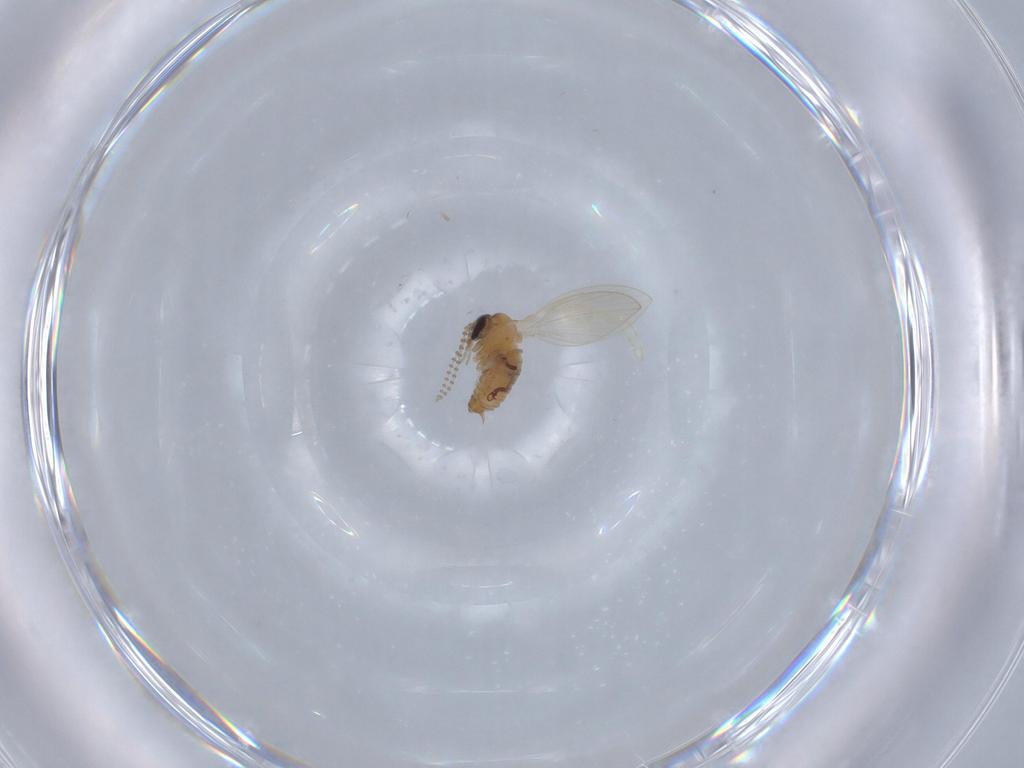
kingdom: Animalia
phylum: Arthropoda
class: Insecta
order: Diptera
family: Psychodidae
